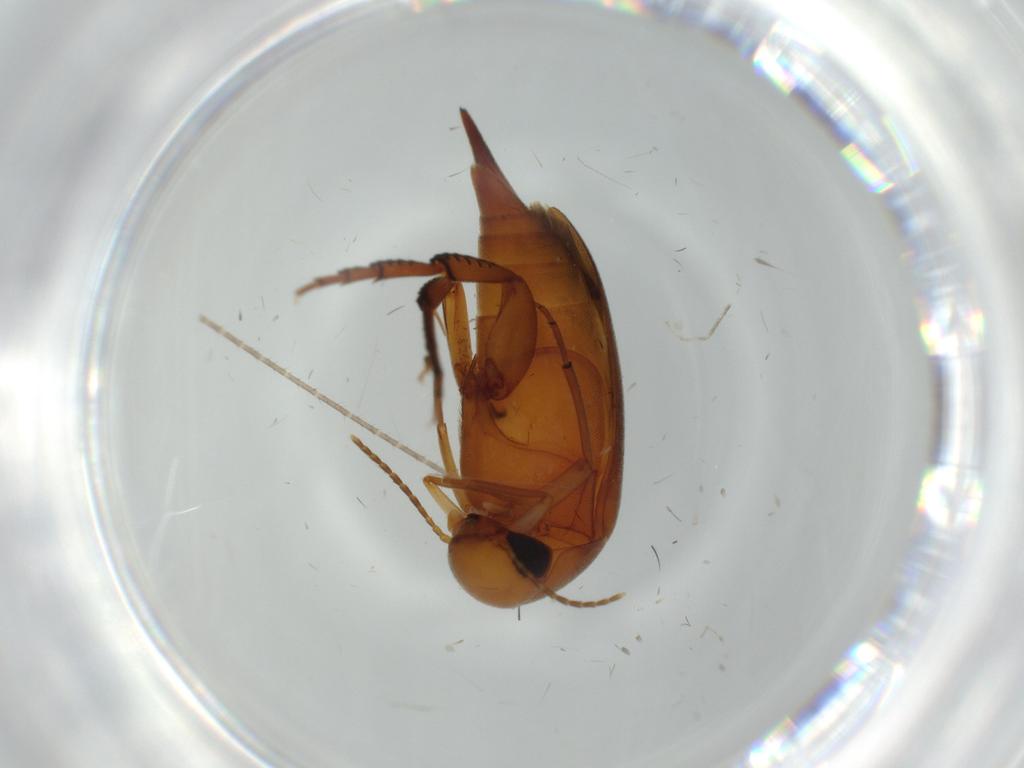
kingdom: Animalia
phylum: Arthropoda
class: Insecta
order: Coleoptera
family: Mordellidae
